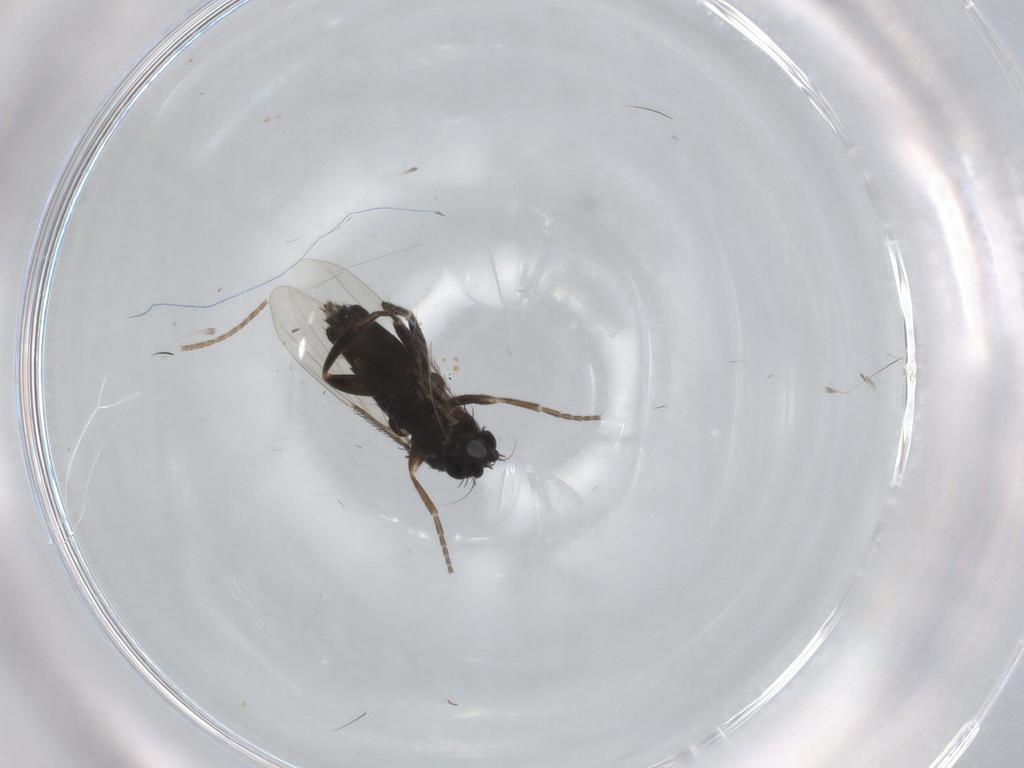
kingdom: Animalia
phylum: Arthropoda
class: Insecta
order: Diptera
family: Phoridae
